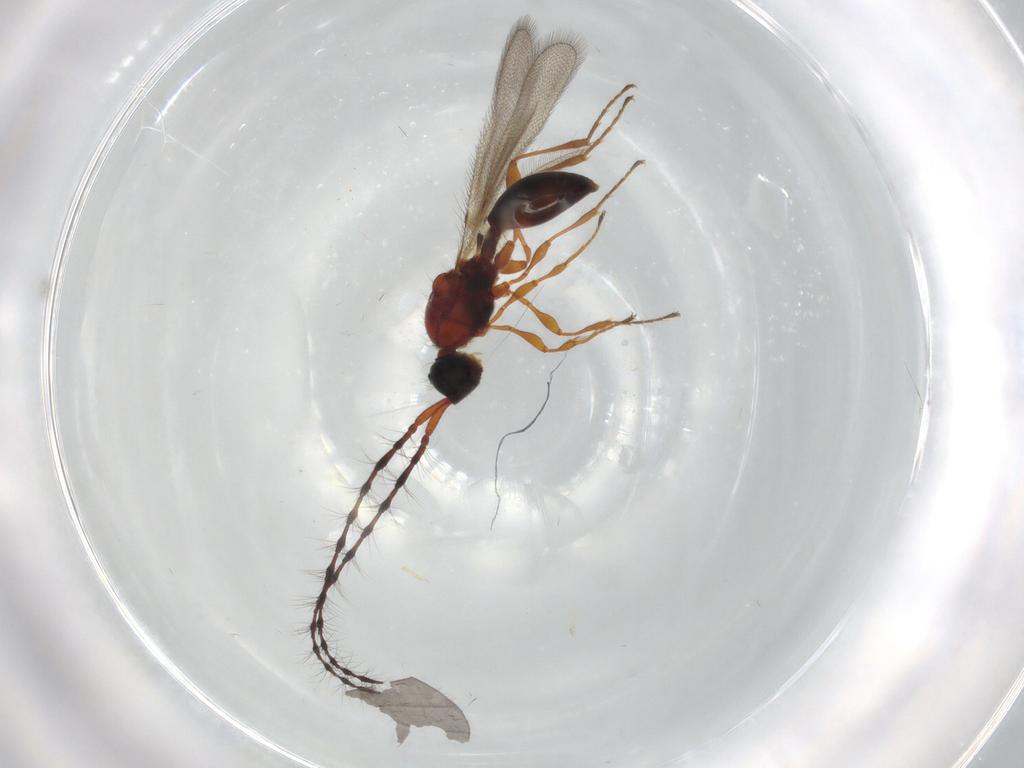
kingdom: Animalia
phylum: Arthropoda
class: Insecta
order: Hymenoptera
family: Diapriidae
